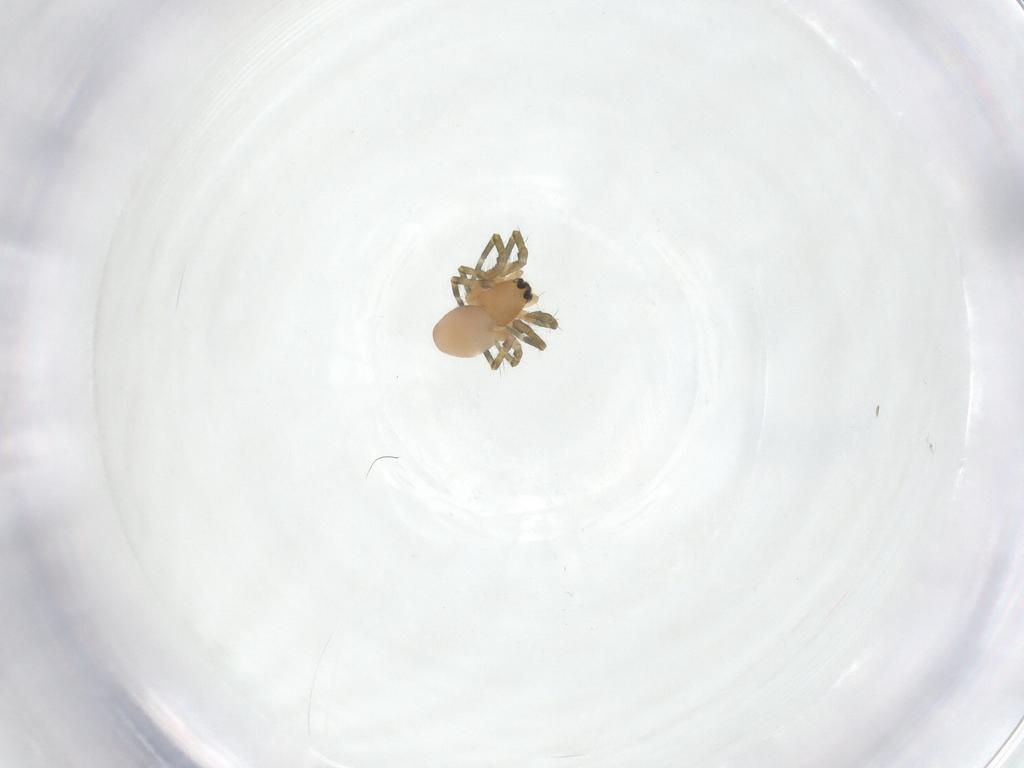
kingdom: Animalia
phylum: Arthropoda
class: Arachnida
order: Araneae
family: Linyphiidae
